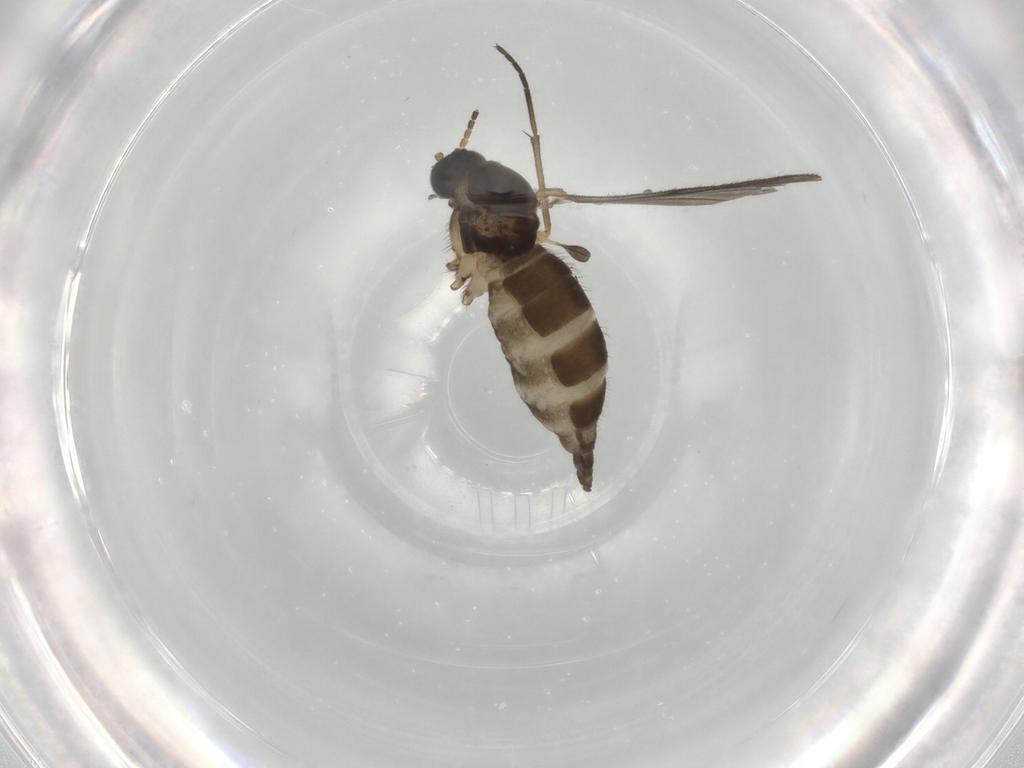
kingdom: Animalia
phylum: Arthropoda
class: Insecta
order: Diptera
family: Sciaridae
